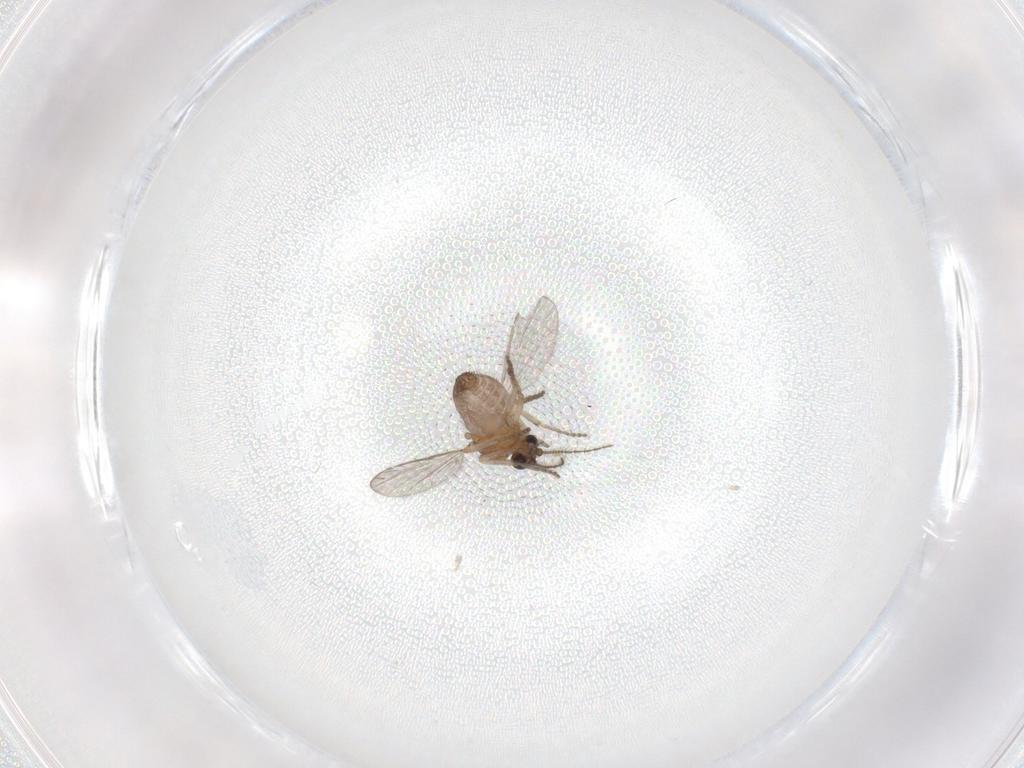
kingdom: Animalia
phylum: Arthropoda
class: Insecta
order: Diptera
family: Ceratopogonidae
